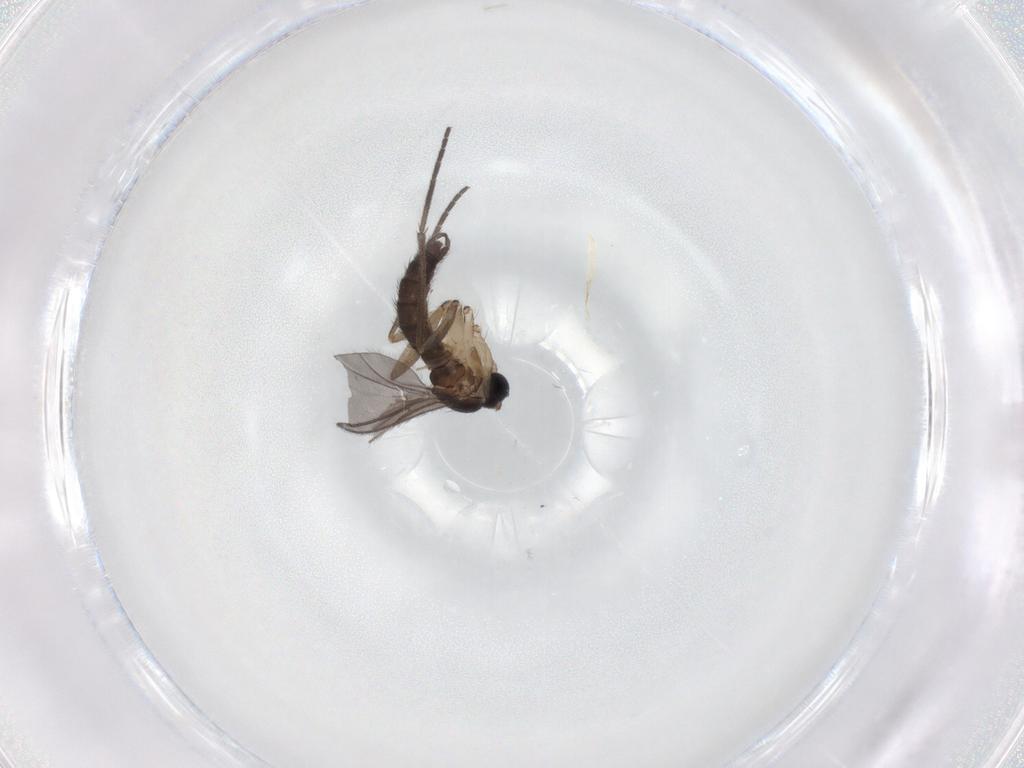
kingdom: Animalia
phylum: Arthropoda
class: Insecta
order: Diptera
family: Sciaridae
